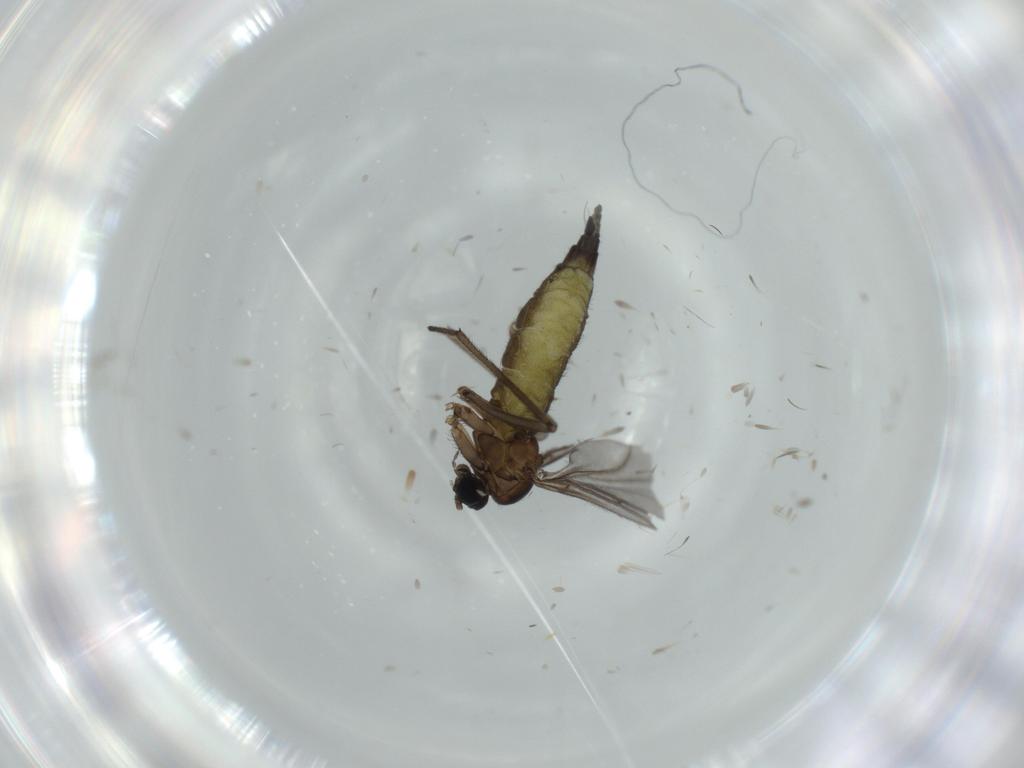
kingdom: Animalia
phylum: Arthropoda
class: Insecta
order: Diptera
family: Chironomidae
